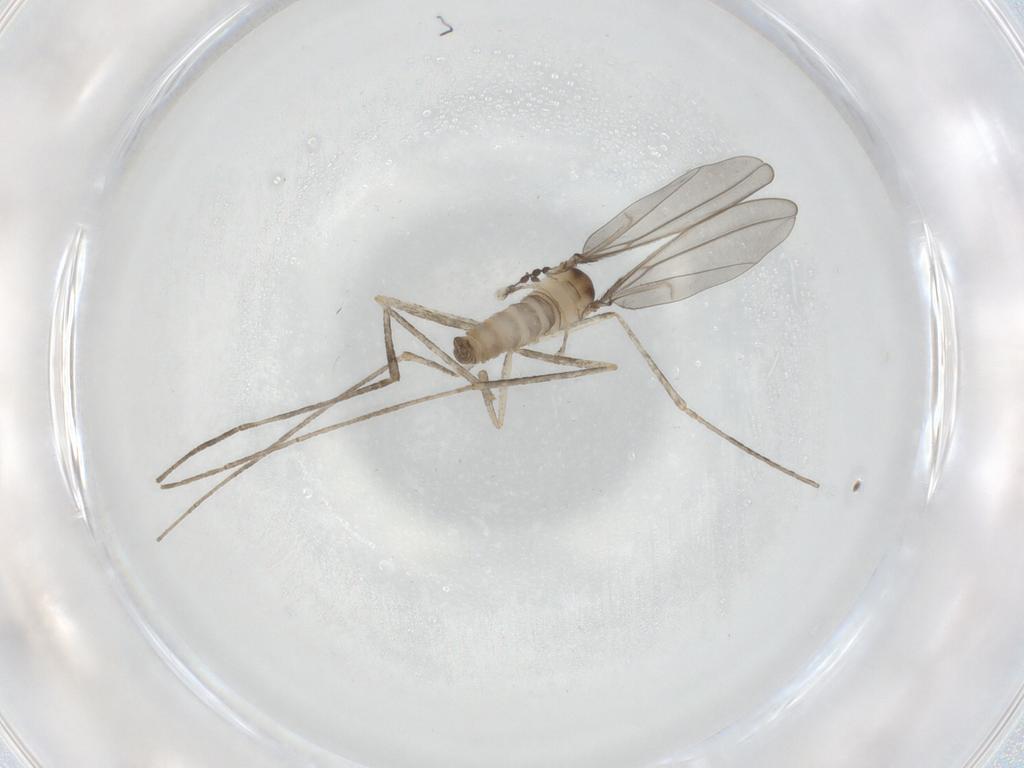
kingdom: Animalia
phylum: Arthropoda
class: Insecta
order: Diptera
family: Cecidomyiidae
